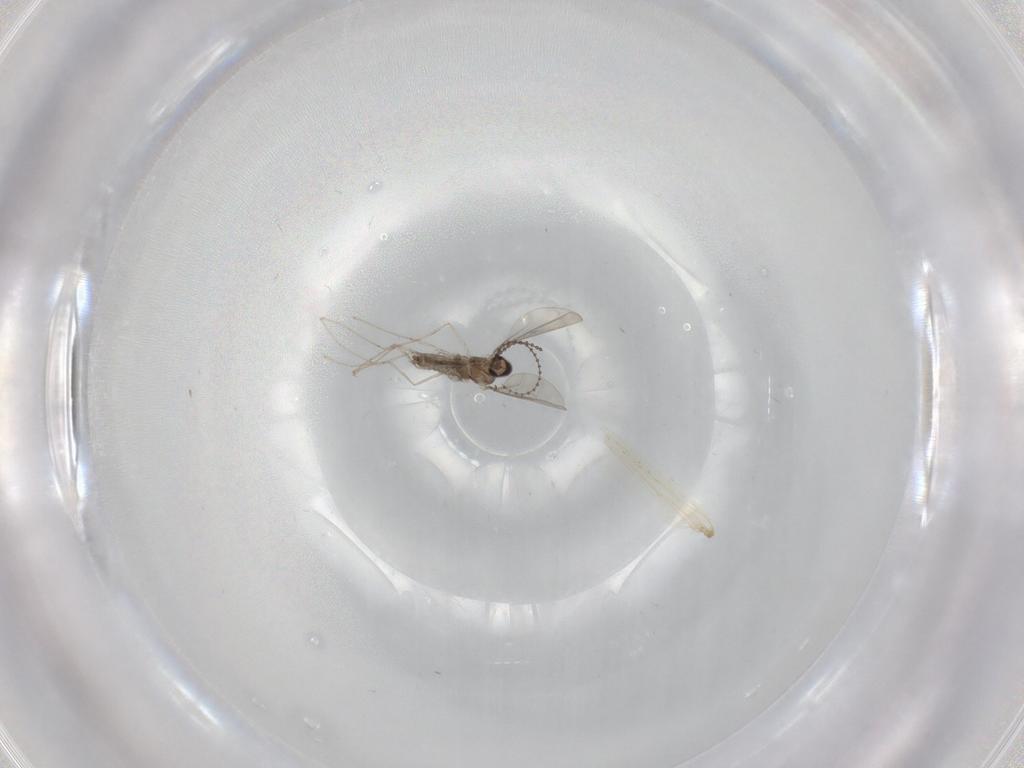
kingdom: Animalia
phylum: Arthropoda
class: Insecta
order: Diptera
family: Cecidomyiidae
